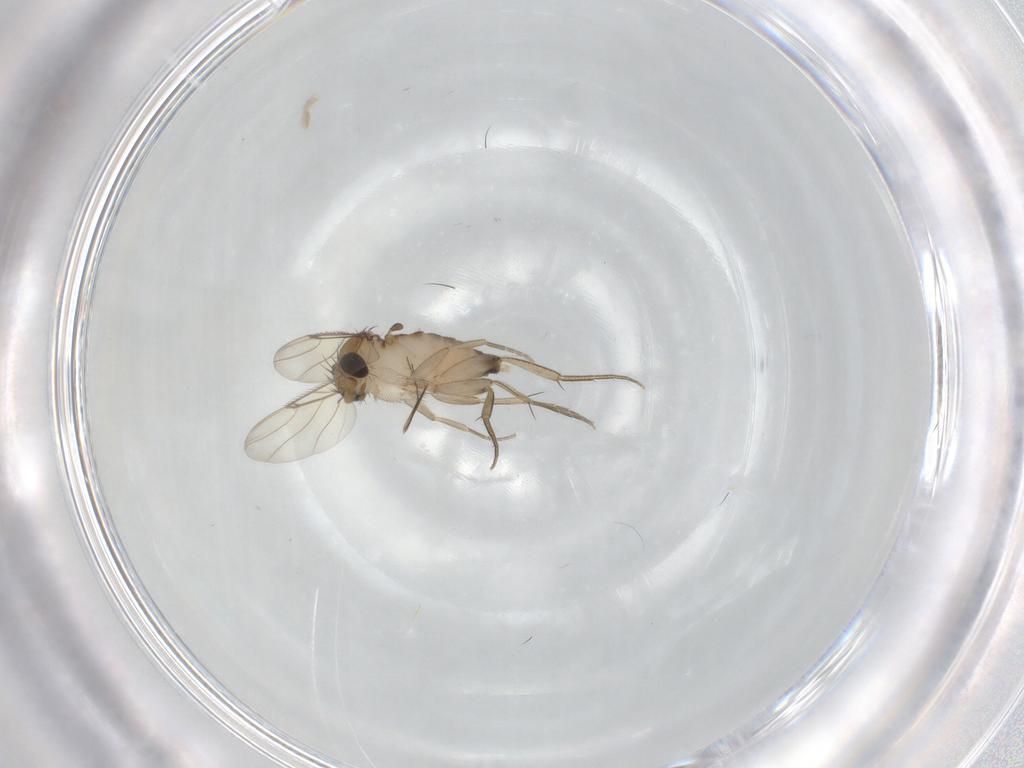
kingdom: Animalia
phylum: Arthropoda
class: Insecta
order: Diptera
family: Phoridae
